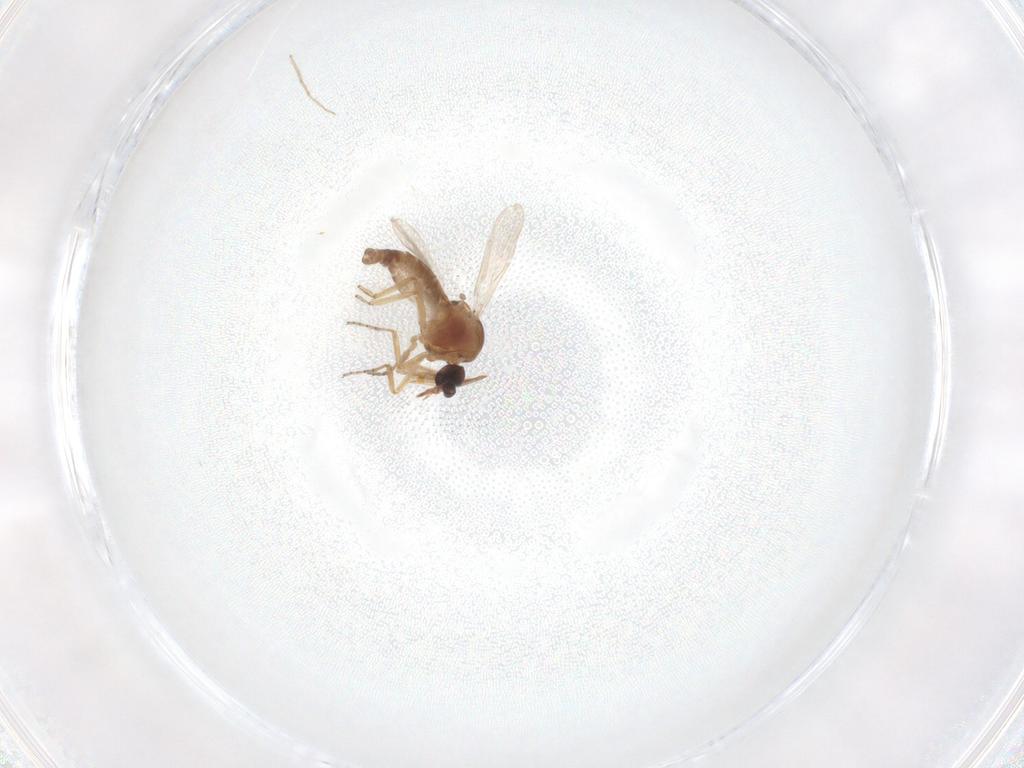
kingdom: Animalia
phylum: Arthropoda
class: Insecta
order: Diptera
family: Ceratopogonidae
